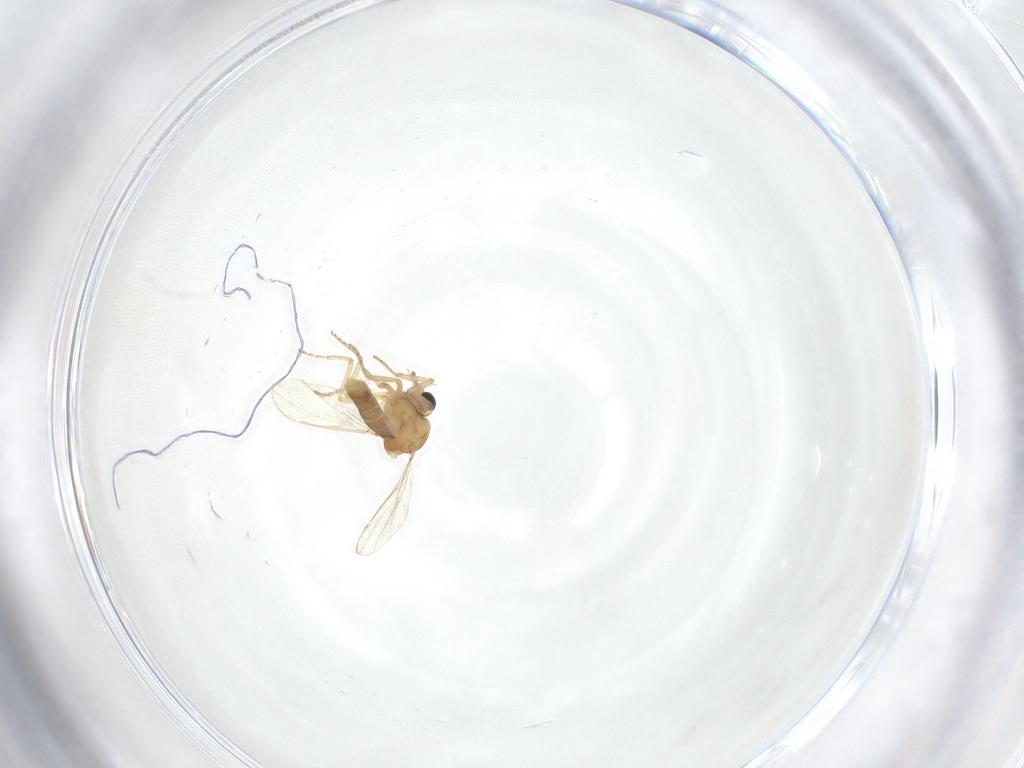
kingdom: Animalia
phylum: Arthropoda
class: Insecta
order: Diptera
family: Ceratopogonidae
